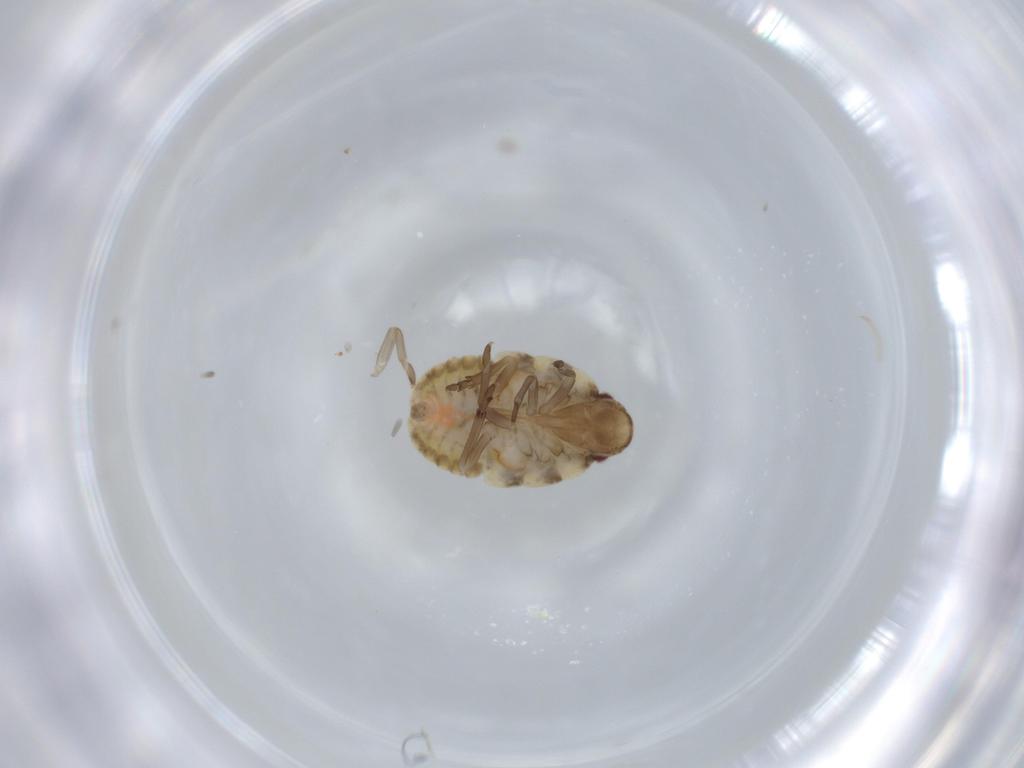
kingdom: Animalia
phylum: Arthropoda
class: Insecta
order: Hemiptera
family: Flatidae
